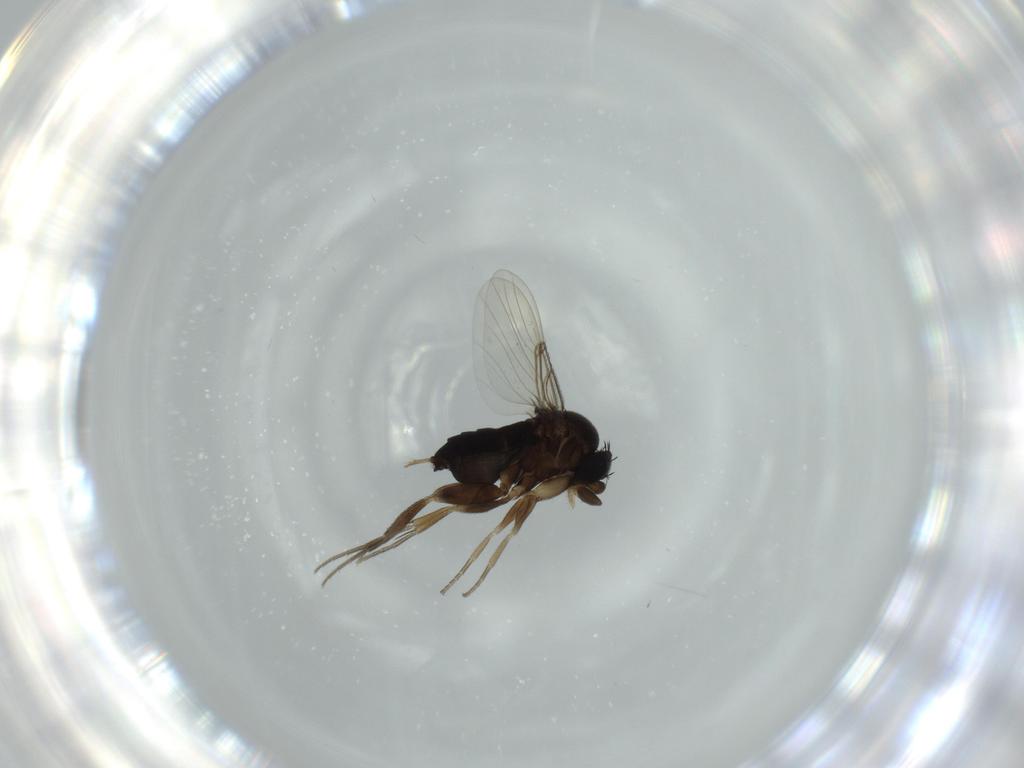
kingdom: Animalia
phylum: Arthropoda
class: Insecta
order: Diptera
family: Phoridae
